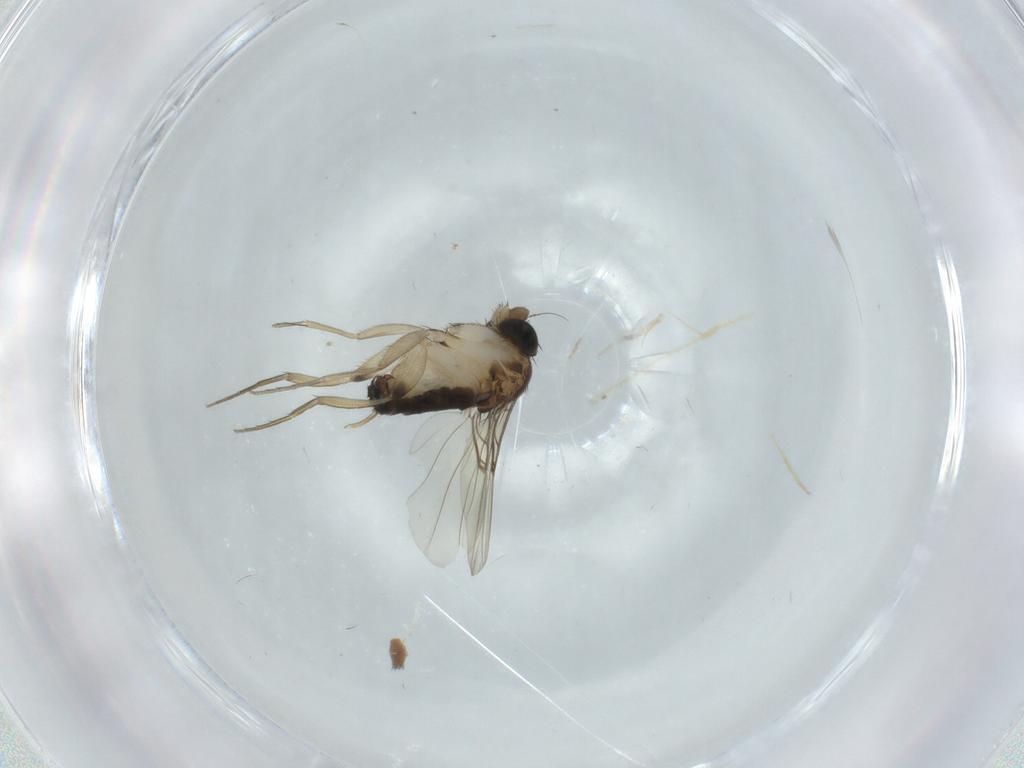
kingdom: Animalia
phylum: Arthropoda
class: Insecta
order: Diptera
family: Phoridae
